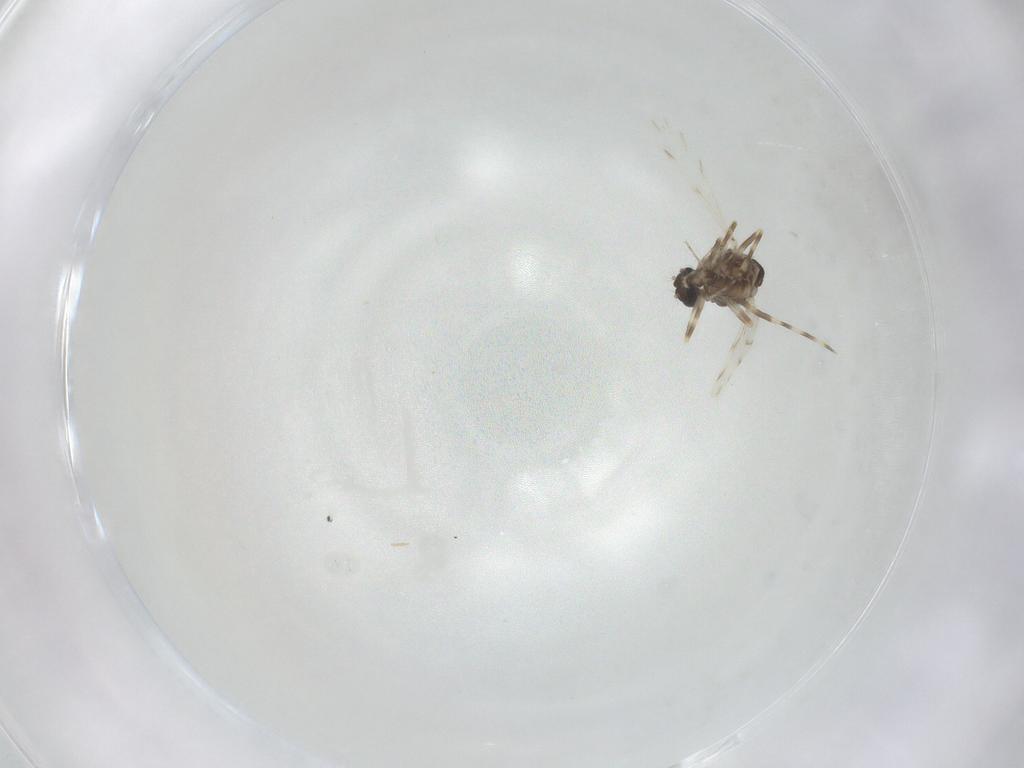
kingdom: Animalia
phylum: Arthropoda
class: Insecta
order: Diptera
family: Ceratopogonidae
